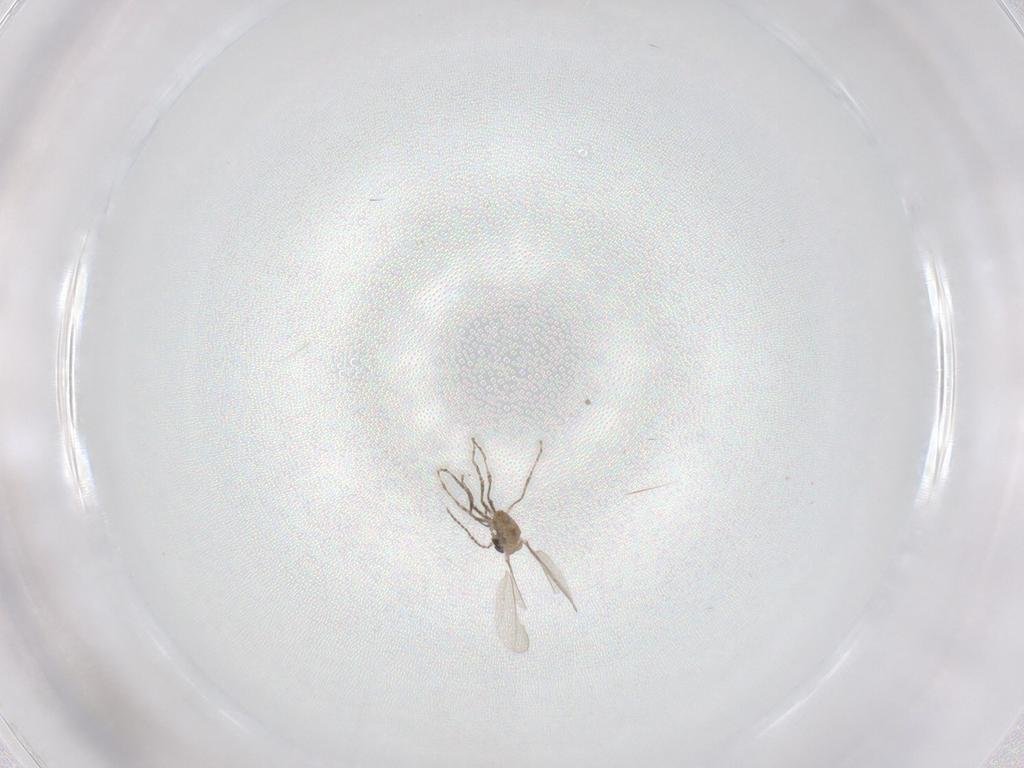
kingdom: Animalia
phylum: Arthropoda
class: Insecta
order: Diptera
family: Cecidomyiidae
